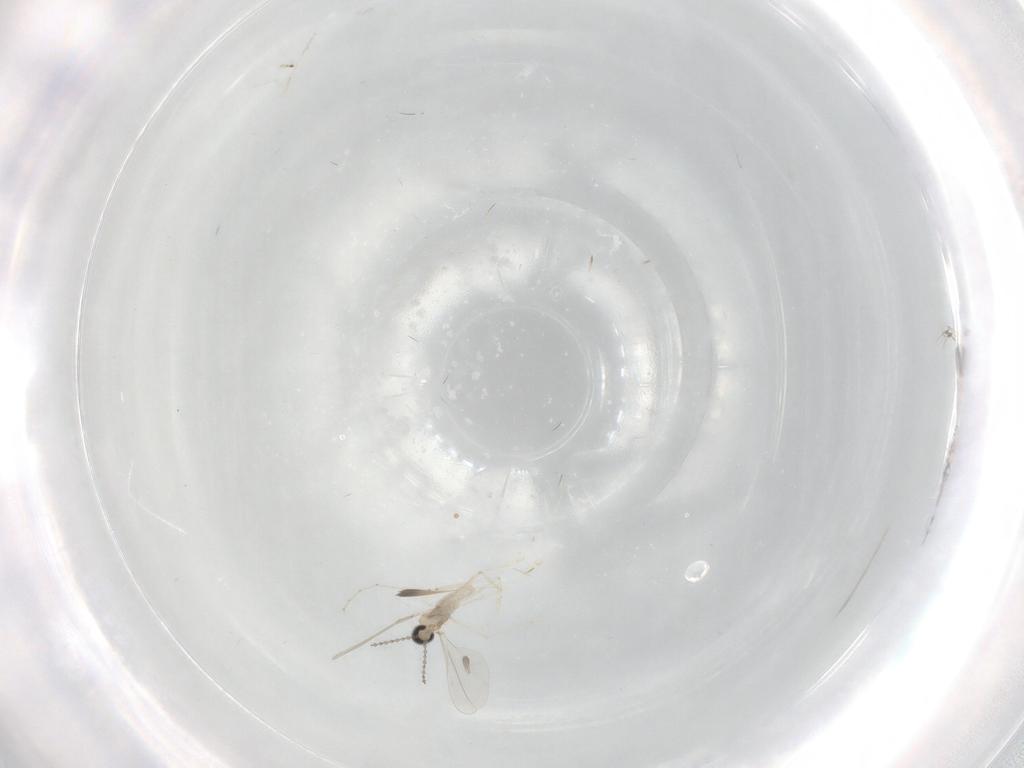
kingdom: Animalia
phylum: Arthropoda
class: Insecta
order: Diptera
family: Cecidomyiidae
